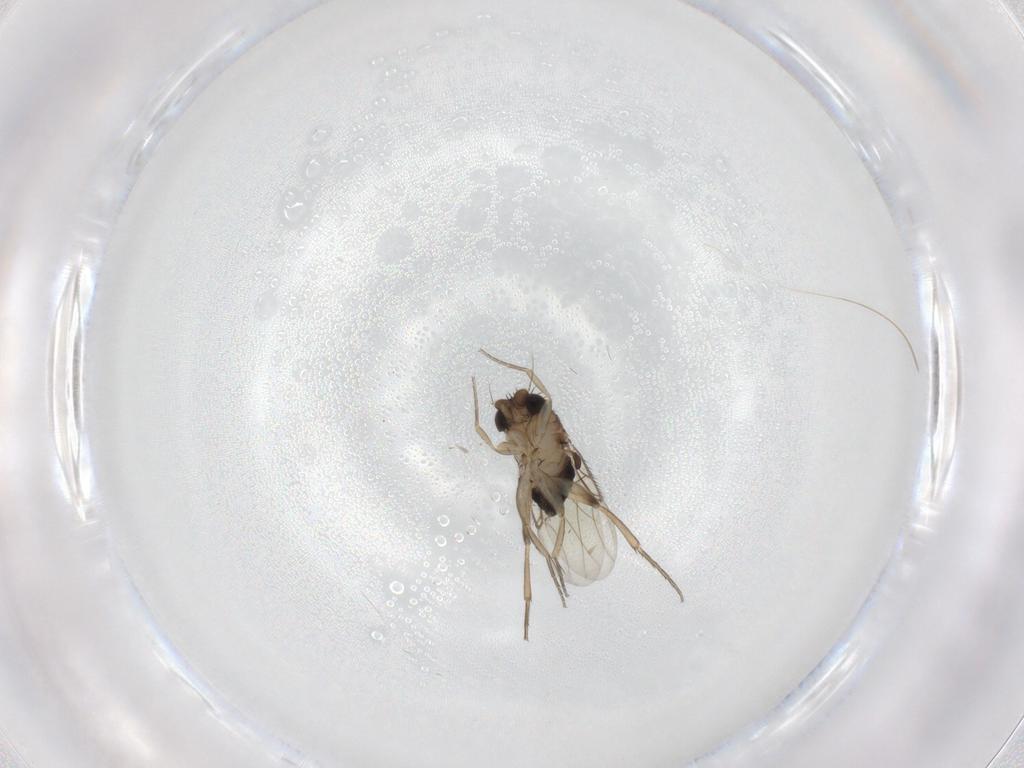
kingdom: Animalia
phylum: Arthropoda
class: Insecta
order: Diptera
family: Phoridae
